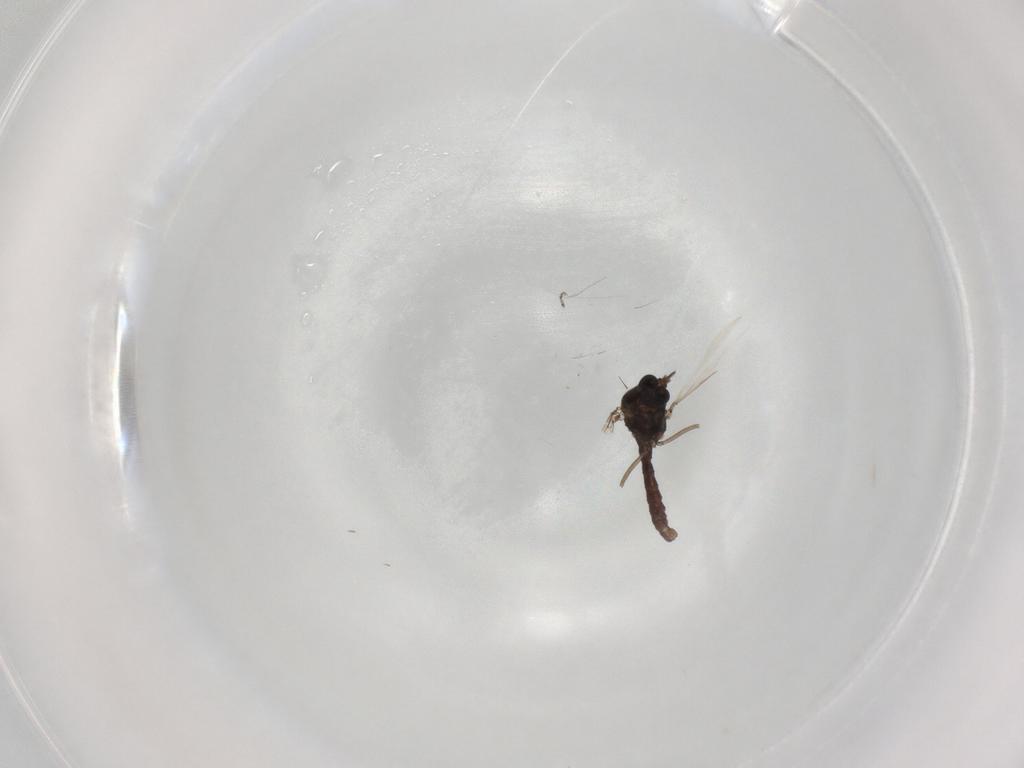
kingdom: Animalia
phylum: Arthropoda
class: Insecta
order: Diptera
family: Ceratopogonidae
